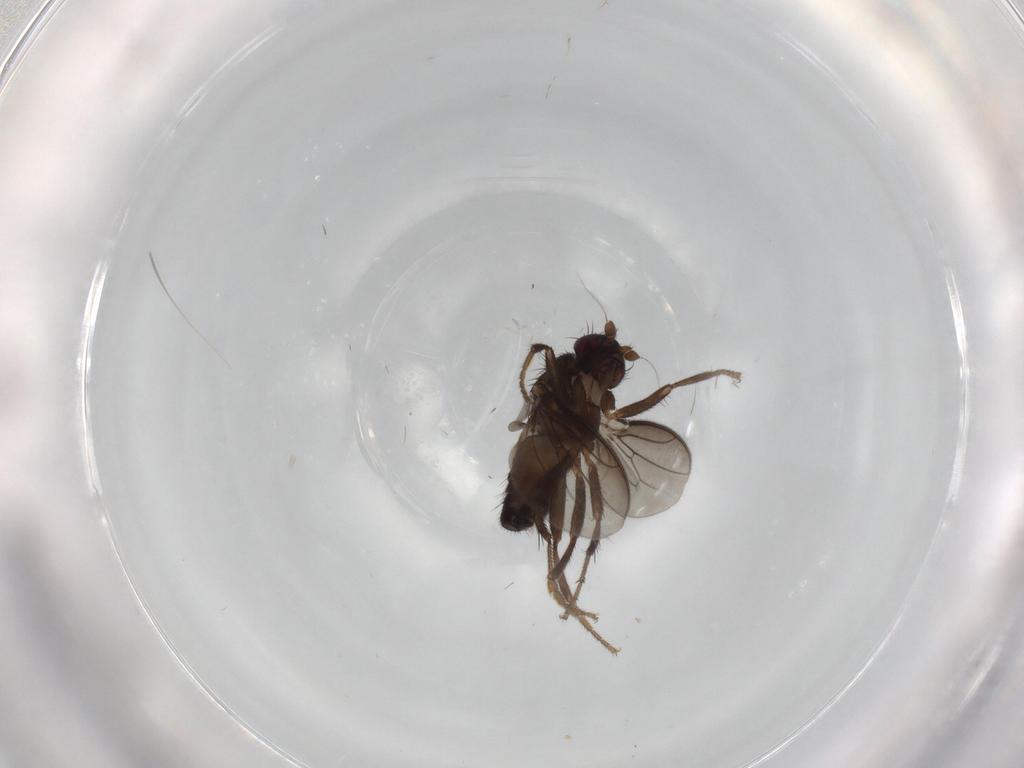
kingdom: Animalia
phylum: Arthropoda
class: Insecta
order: Diptera
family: Sphaeroceridae
